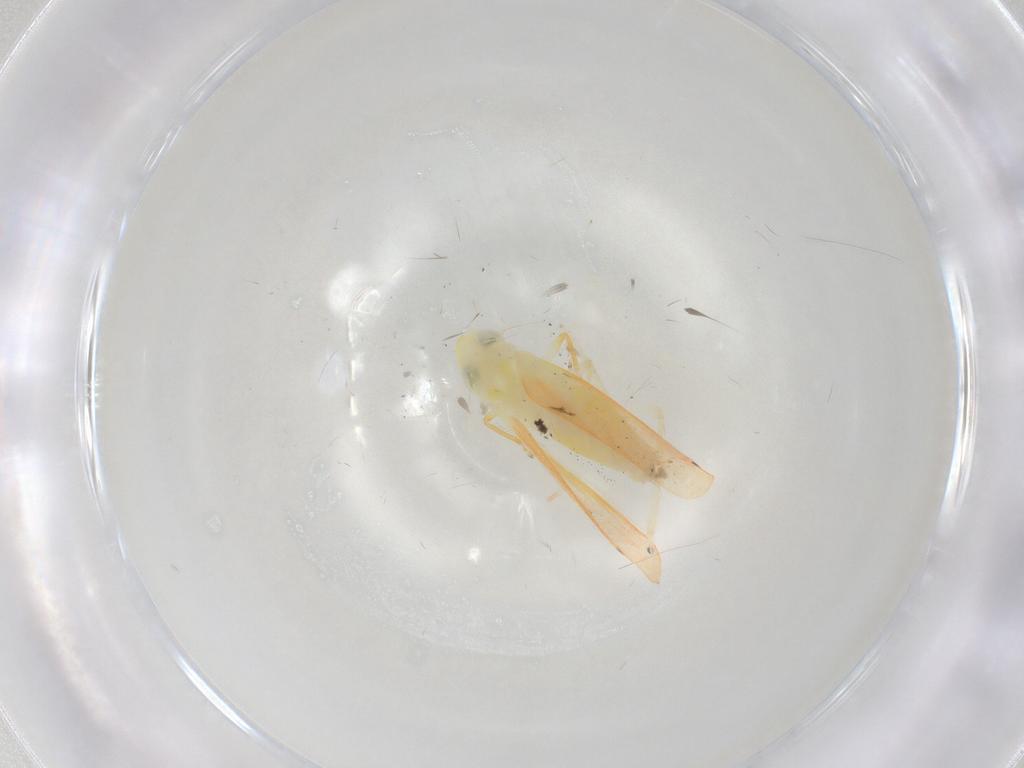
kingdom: Animalia
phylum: Arthropoda
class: Insecta
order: Hemiptera
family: Cicadellidae
